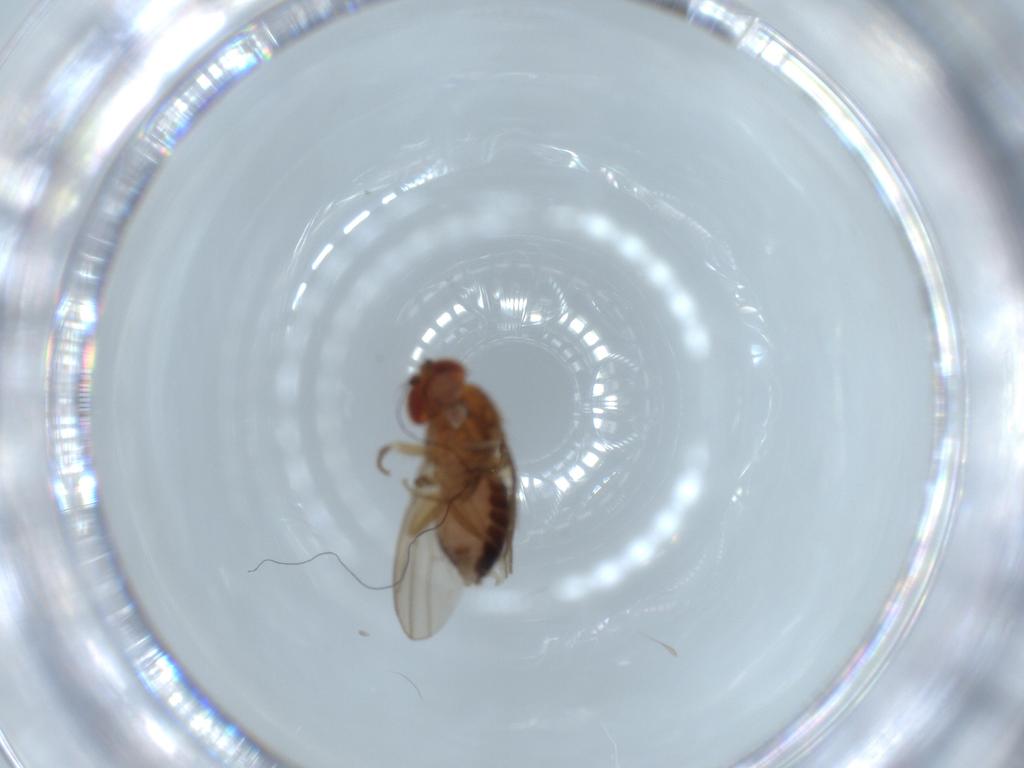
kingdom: Animalia
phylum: Arthropoda
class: Insecta
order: Diptera
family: Drosophilidae
